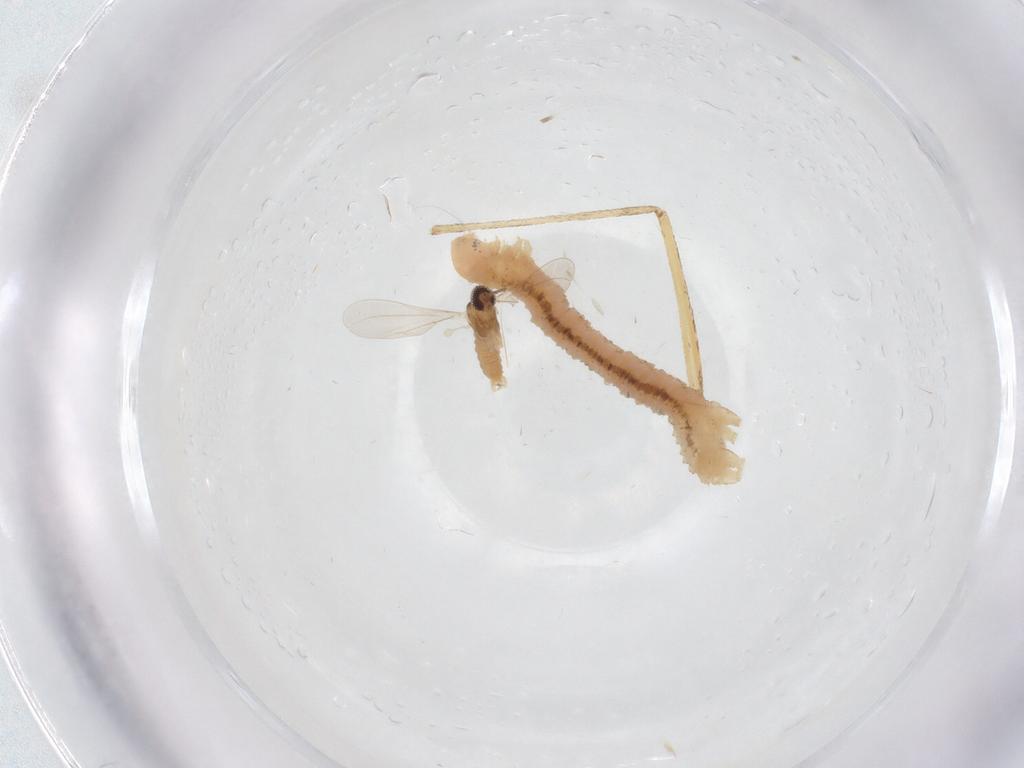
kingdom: Animalia
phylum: Arthropoda
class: Insecta
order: Lepidoptera
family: Geometridae
